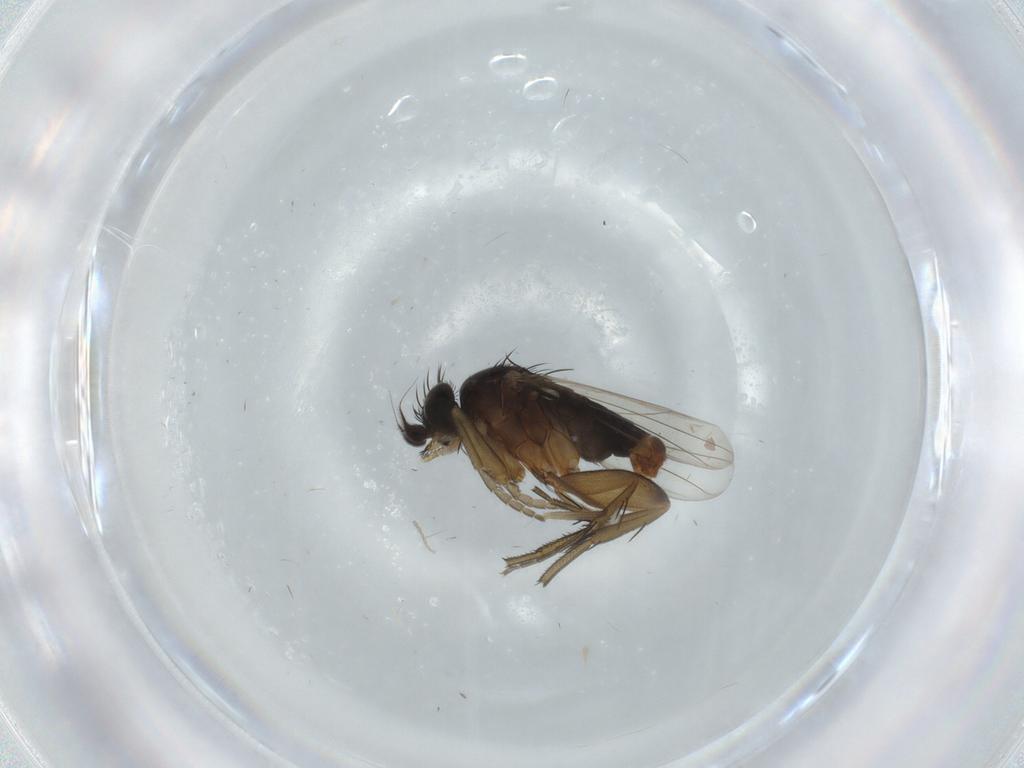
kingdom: Animalia
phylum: Arthropoda
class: Insecta
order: Diptera
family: Phoridae
